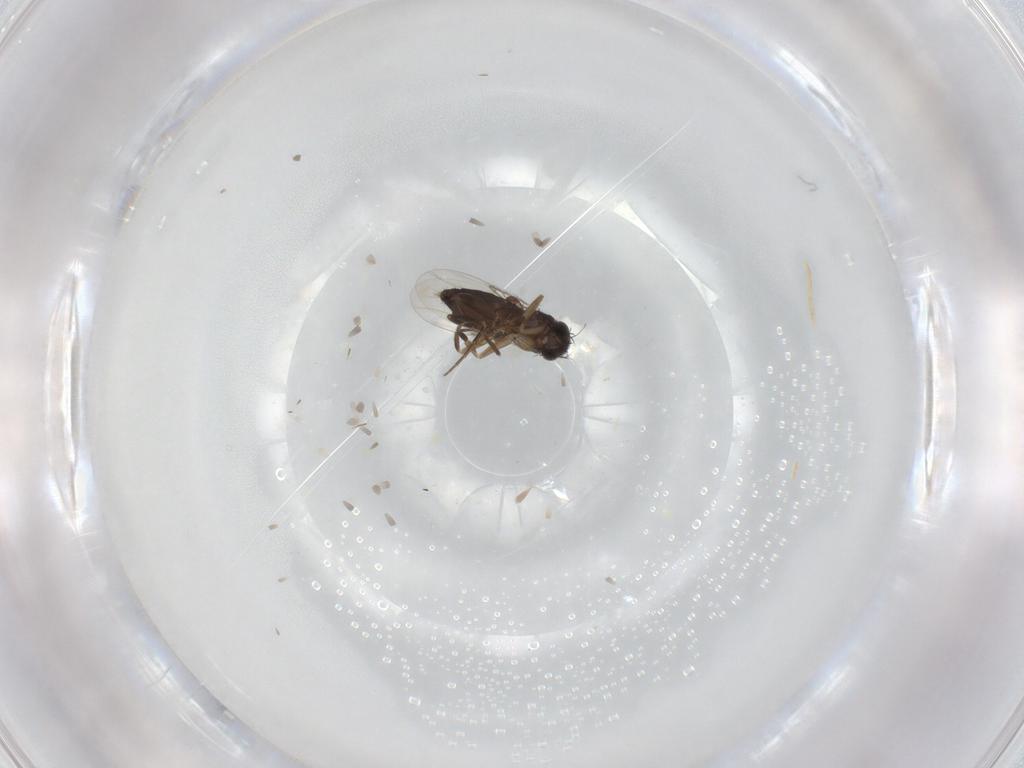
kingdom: Animalia
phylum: Arthropoda
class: Insecta
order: Diptera
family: Phoridae
